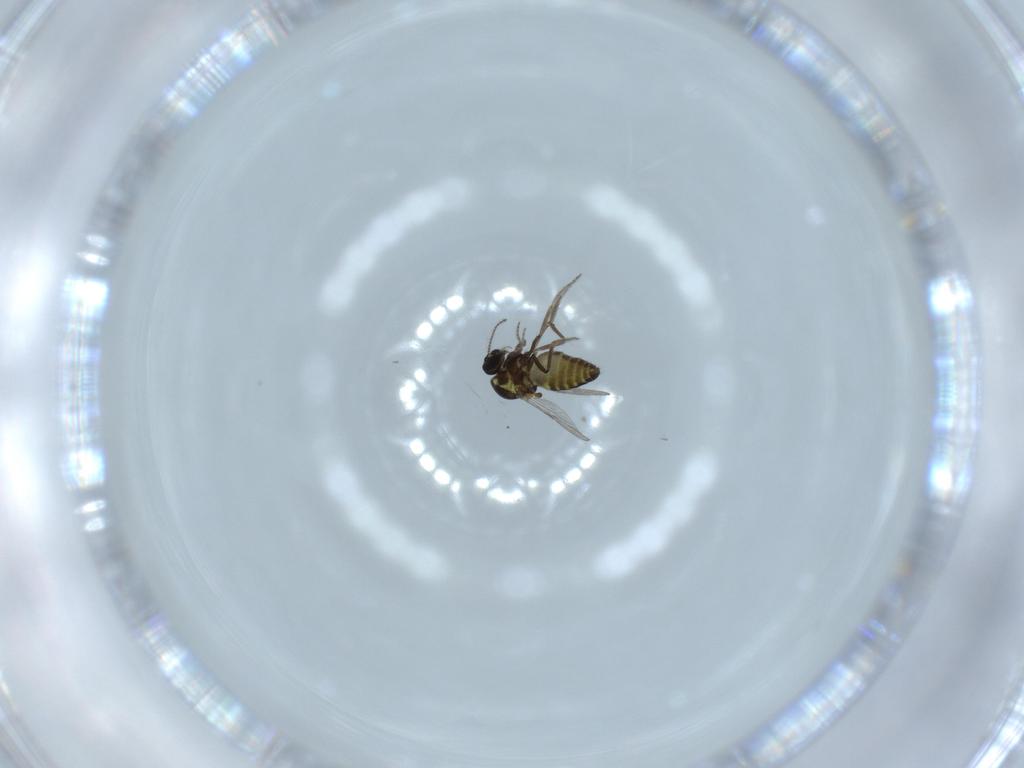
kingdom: Animalia
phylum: Arthropoda
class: Insecta
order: Diptera
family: Ceratopogonidae
